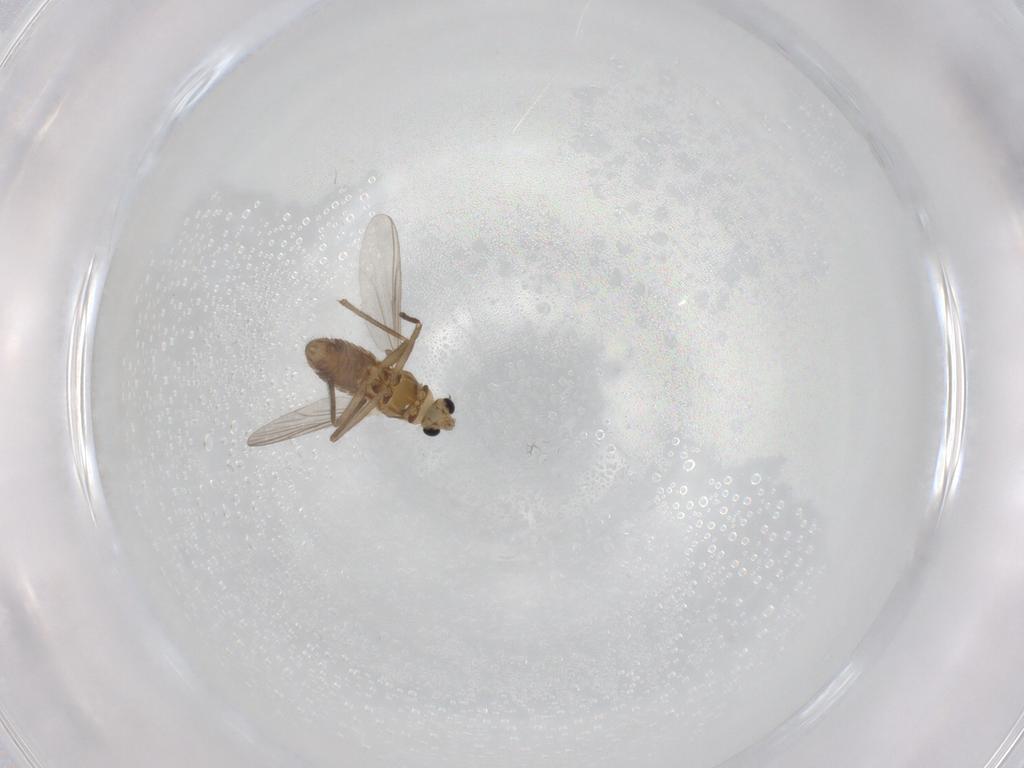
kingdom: Animalia
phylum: Arthropoda
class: Insecta
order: Diptera
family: Chironomidae
